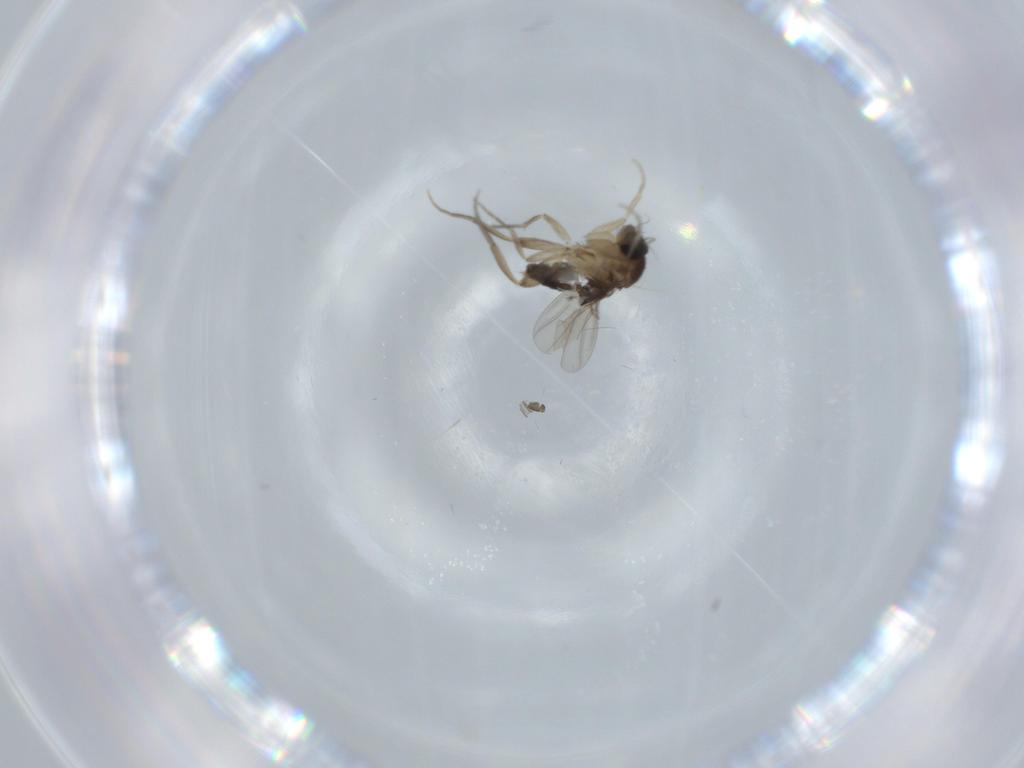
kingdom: Animalia
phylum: Arthropoda
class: Insecta
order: Diptera
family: Phoridae
